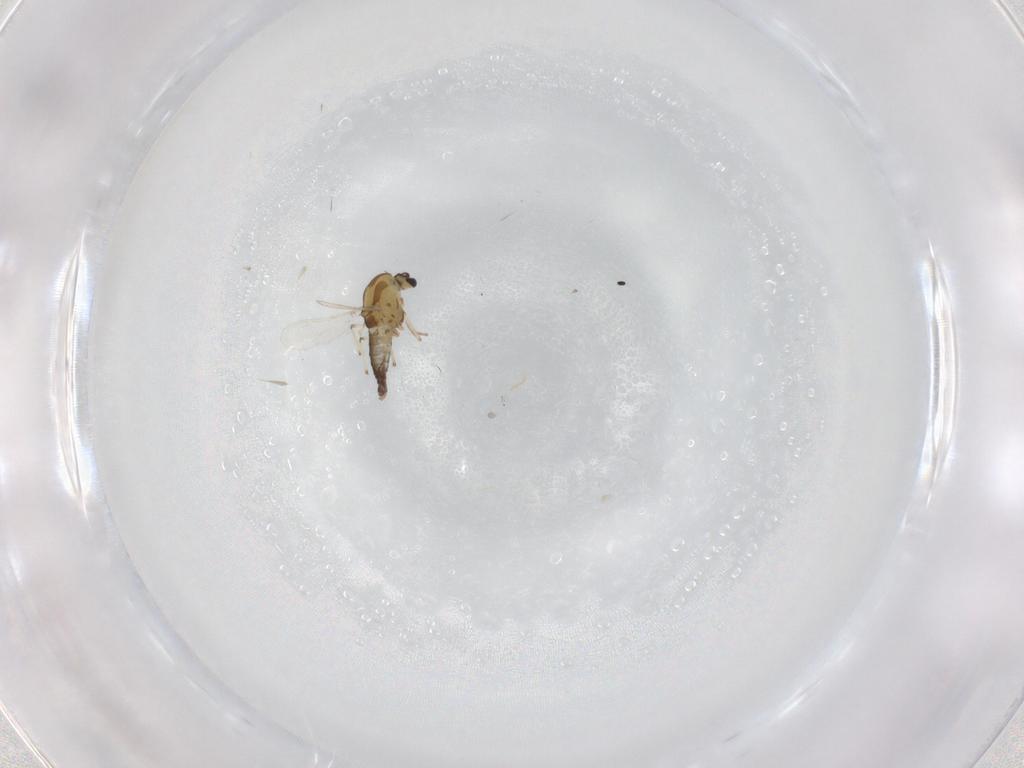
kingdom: Animalia
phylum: Arthropoda
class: Insecta
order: Diptera
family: Chironomidae
